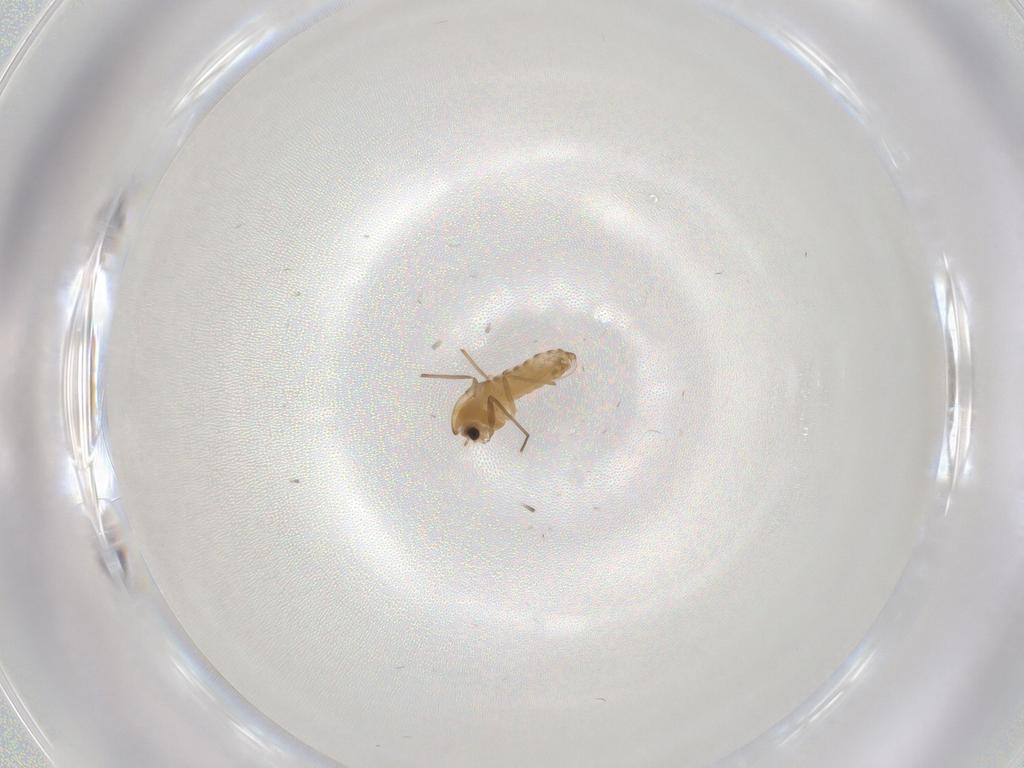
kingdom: Animalia
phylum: Arthropoda
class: Insecta
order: Diptera
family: Chironomidae
